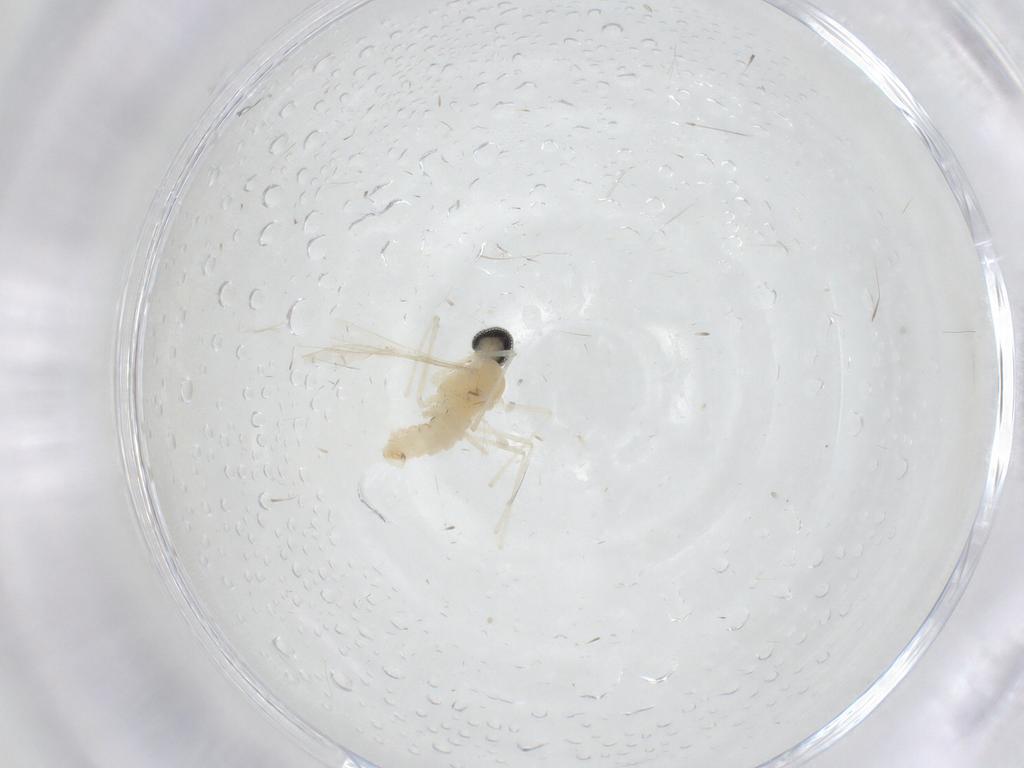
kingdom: Animalia
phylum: Arthropoda
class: Insecta
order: Diptera
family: Cecidomyiidae
